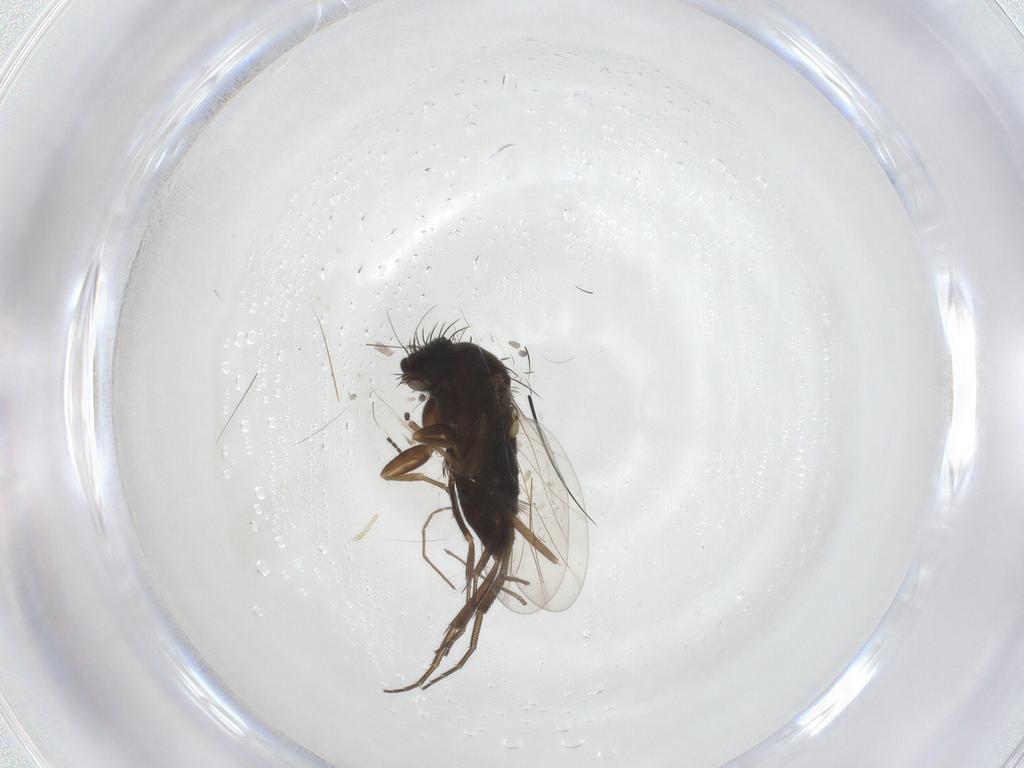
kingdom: Animalia
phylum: Arthropoda
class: Insecta
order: Diptera
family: Phoridae
